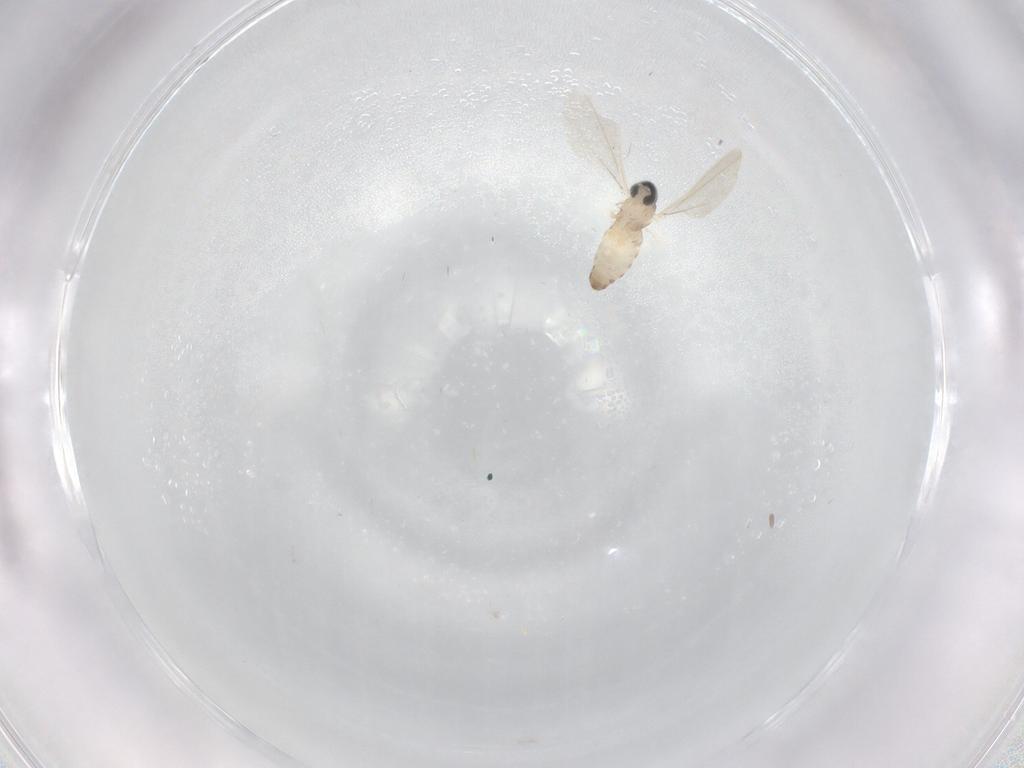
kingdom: Animalia
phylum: Arthropoda
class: Insecta
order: Diptera
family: Cecidomyiidae
